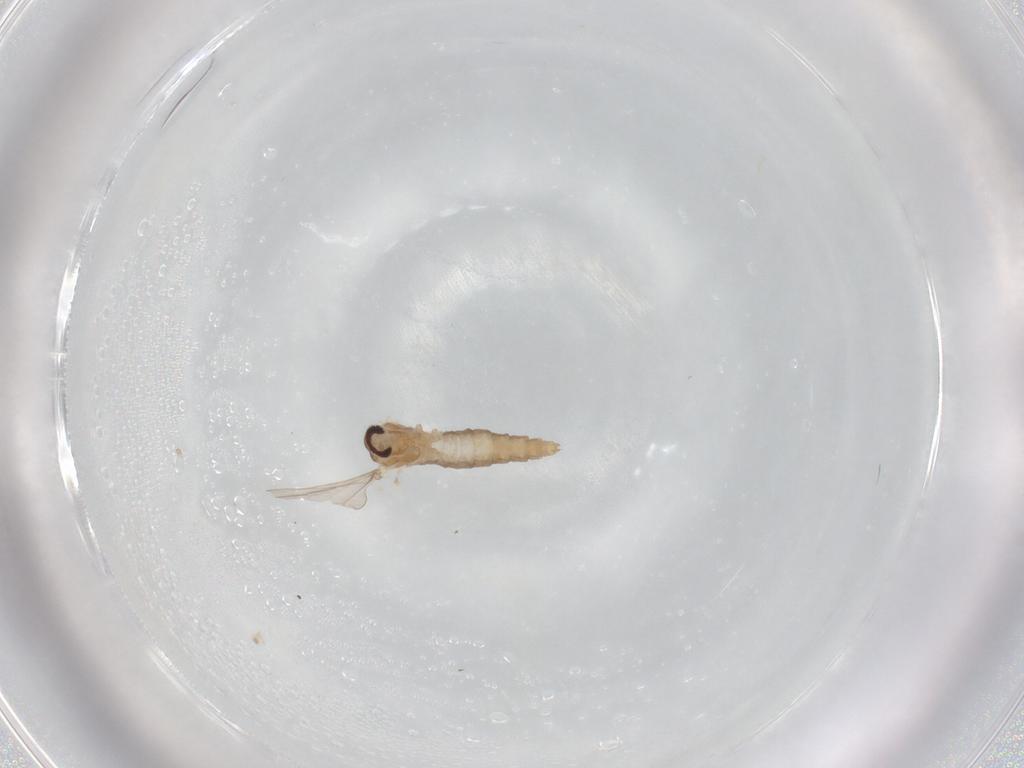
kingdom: Animalia
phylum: Arthropoda
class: Insecta
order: Diptera
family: Cecidomyiidae
